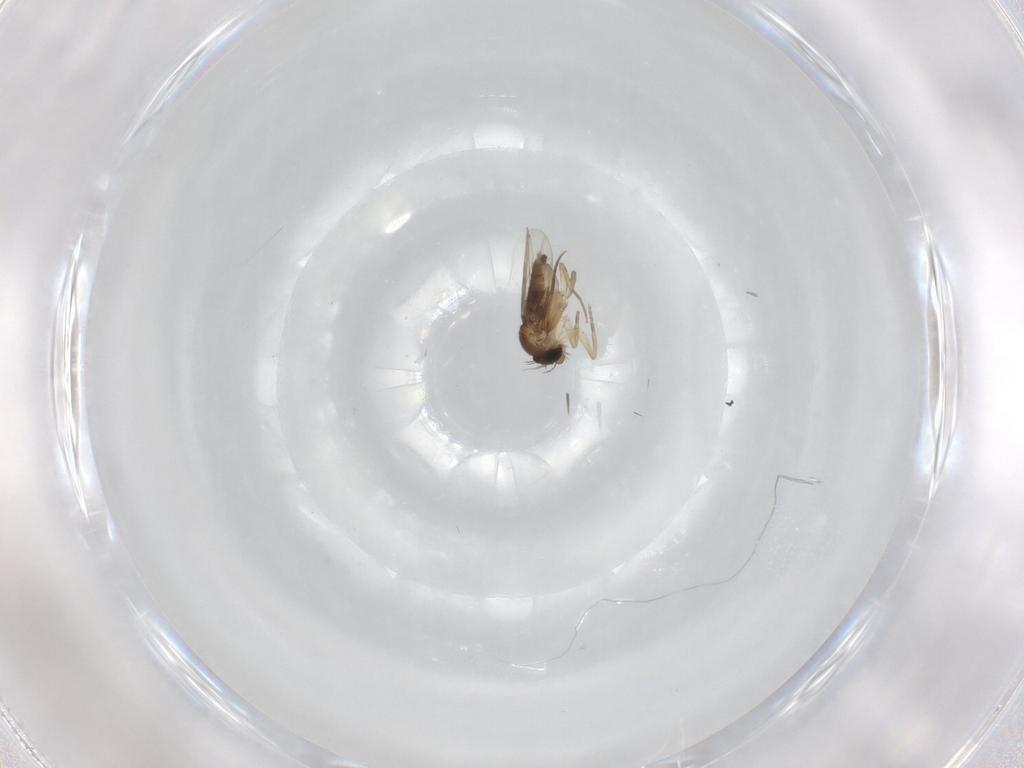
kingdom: Animalia
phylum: Arthropoda
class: Insecta
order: Diptera
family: Phoridae
